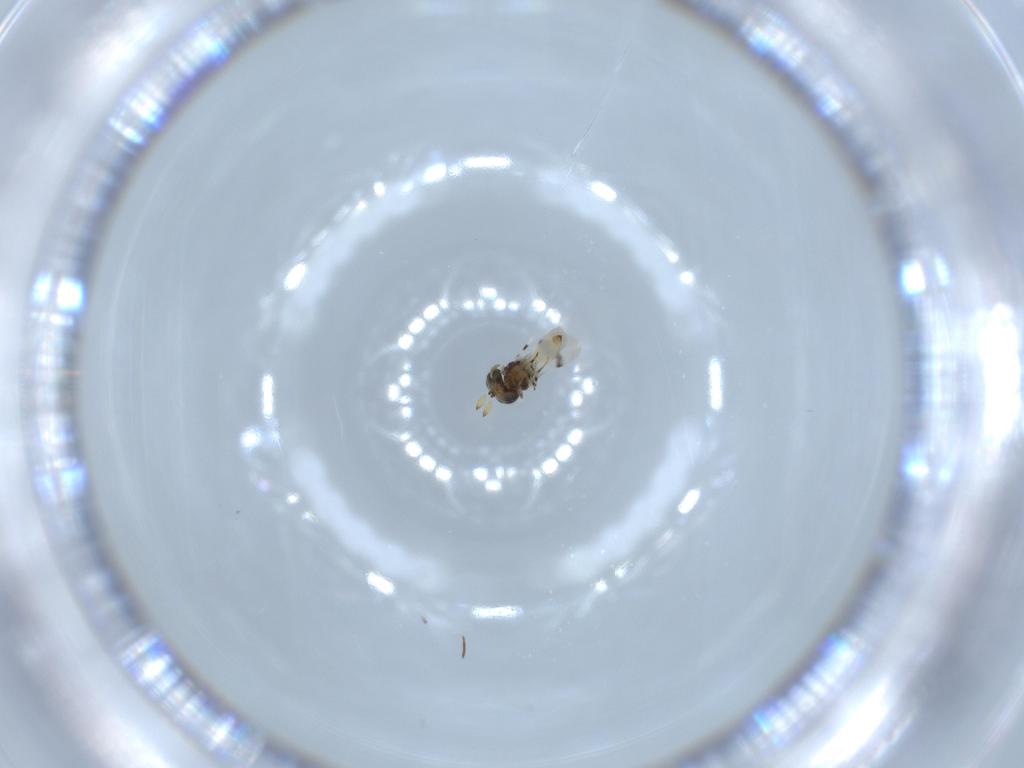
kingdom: Animalia
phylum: Arthropoda
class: Insecta
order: Hymenoptera
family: Scelionidae
